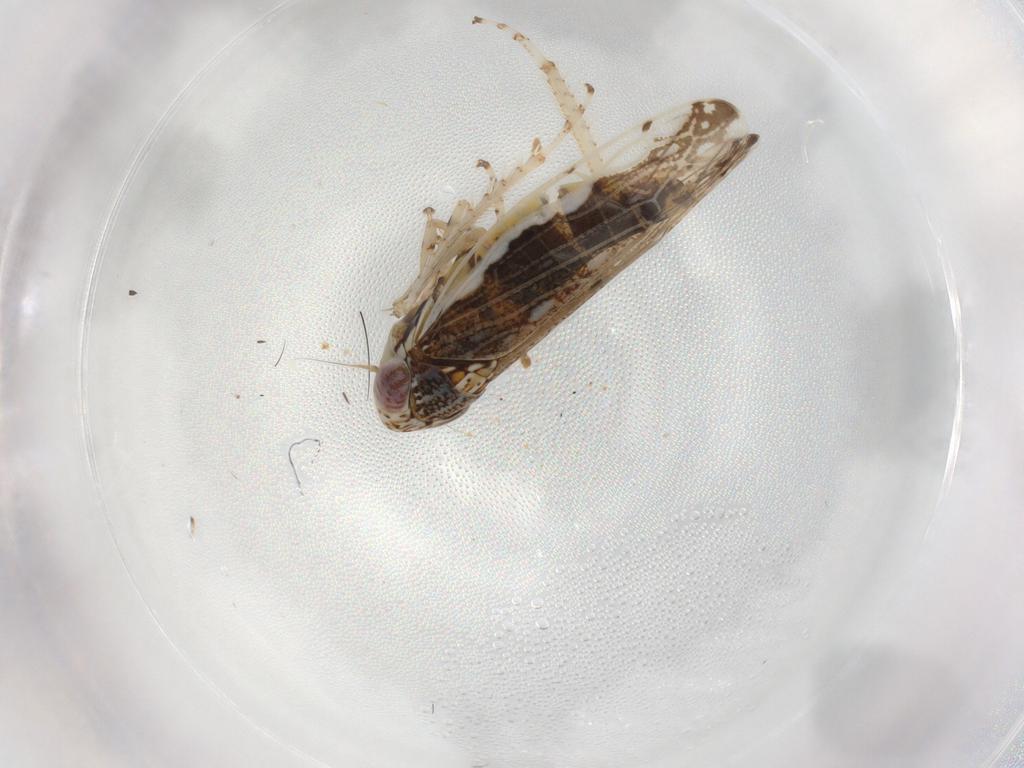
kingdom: Animalia
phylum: Arthropoda
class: Insecta
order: Hemiptera
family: Cicadellidae
